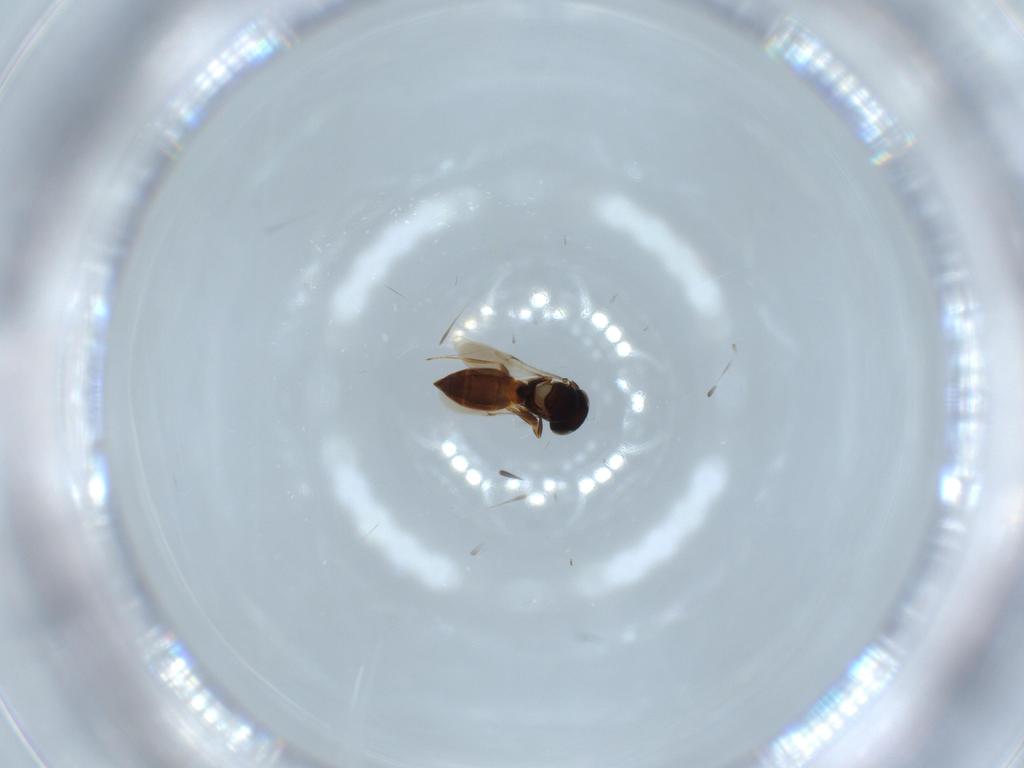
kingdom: Animalia
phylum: Arthropoda
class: Insecta
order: Hymenoptera
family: Scelionidae
